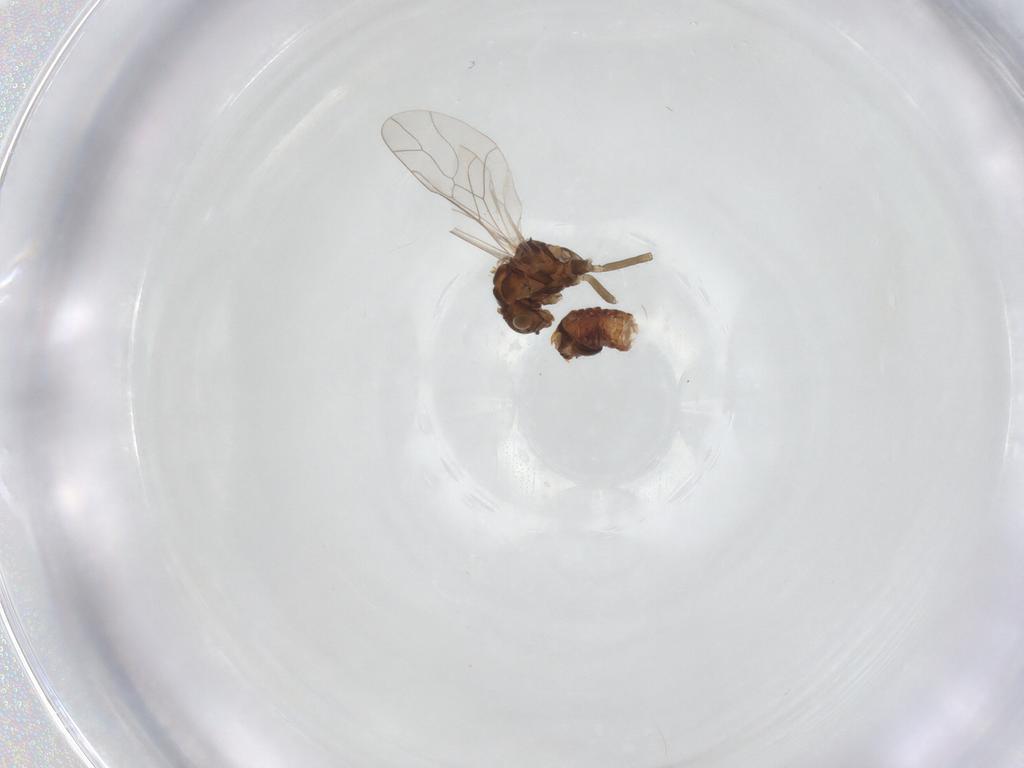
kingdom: Animalia
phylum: Arthropoda
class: Insecta
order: Psocodea
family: Lachesillidae
